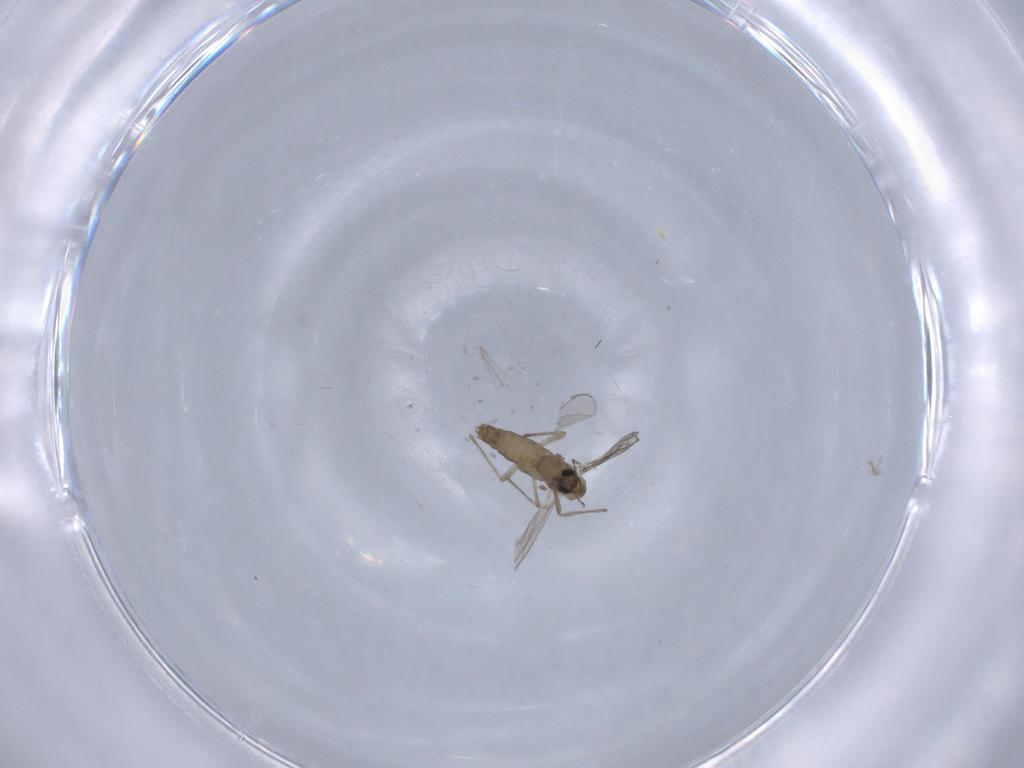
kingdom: Animalia
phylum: Arthropoda
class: Insecta
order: Diptera
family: Chironomidae
